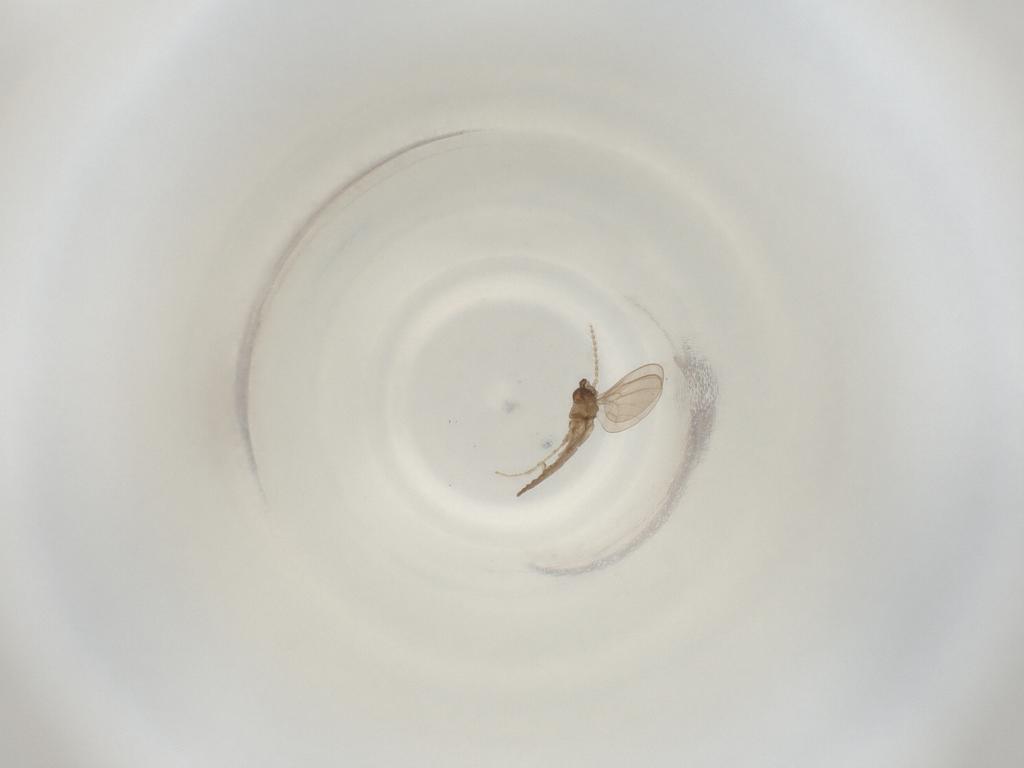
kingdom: Animalia
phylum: Arthropoda
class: Insecta
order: Diptera
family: Cecidomyiidae
